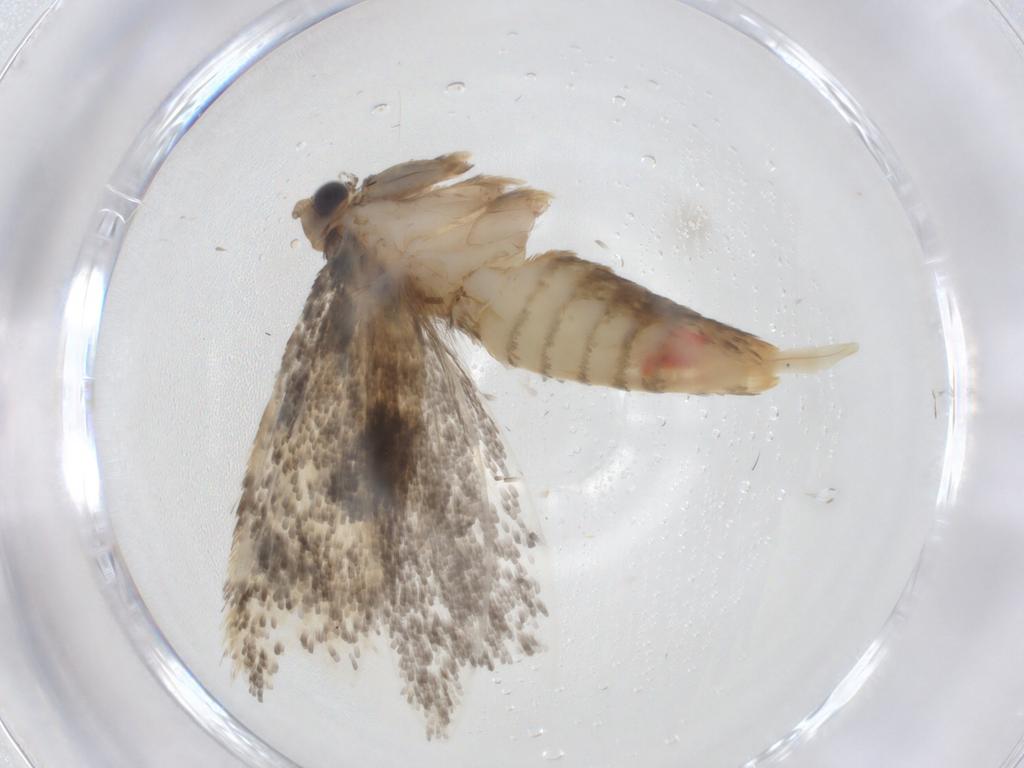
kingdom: Animalia
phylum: Arthropoda
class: Insecta
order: Lepidoptera
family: Tineidae
